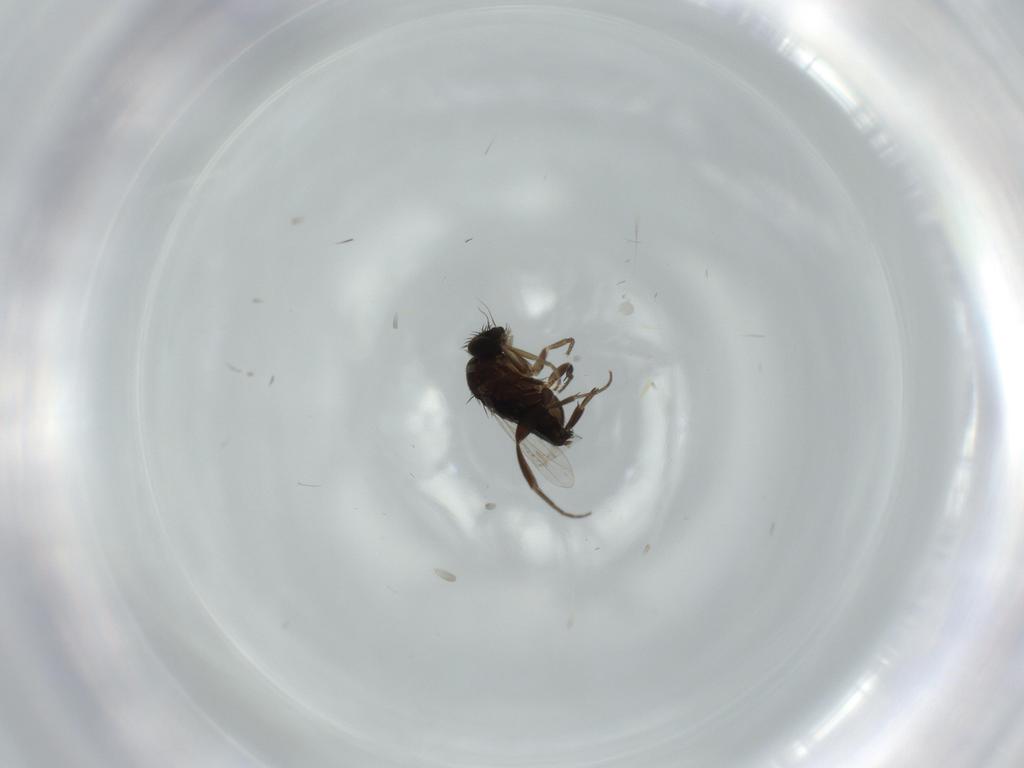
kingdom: Animalia
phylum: Arthropoda
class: Insecta
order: Diptera
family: Phoridae
